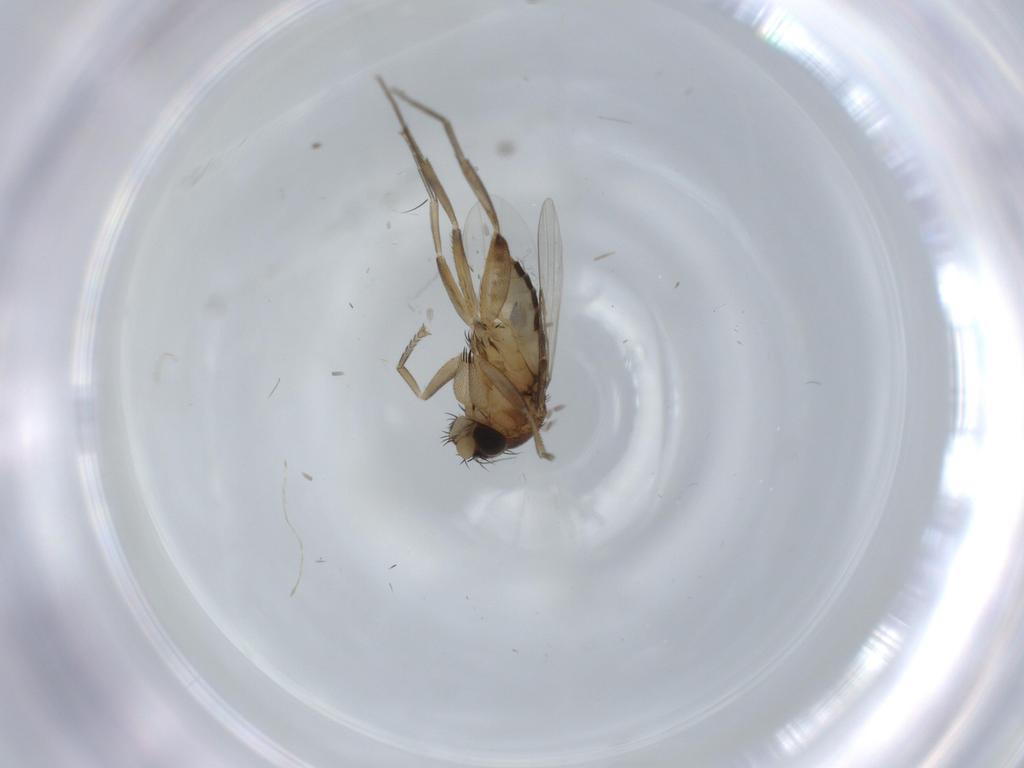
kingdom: Animalia
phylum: Arthropoda
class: Insecta
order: Diptera
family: Phoridae
